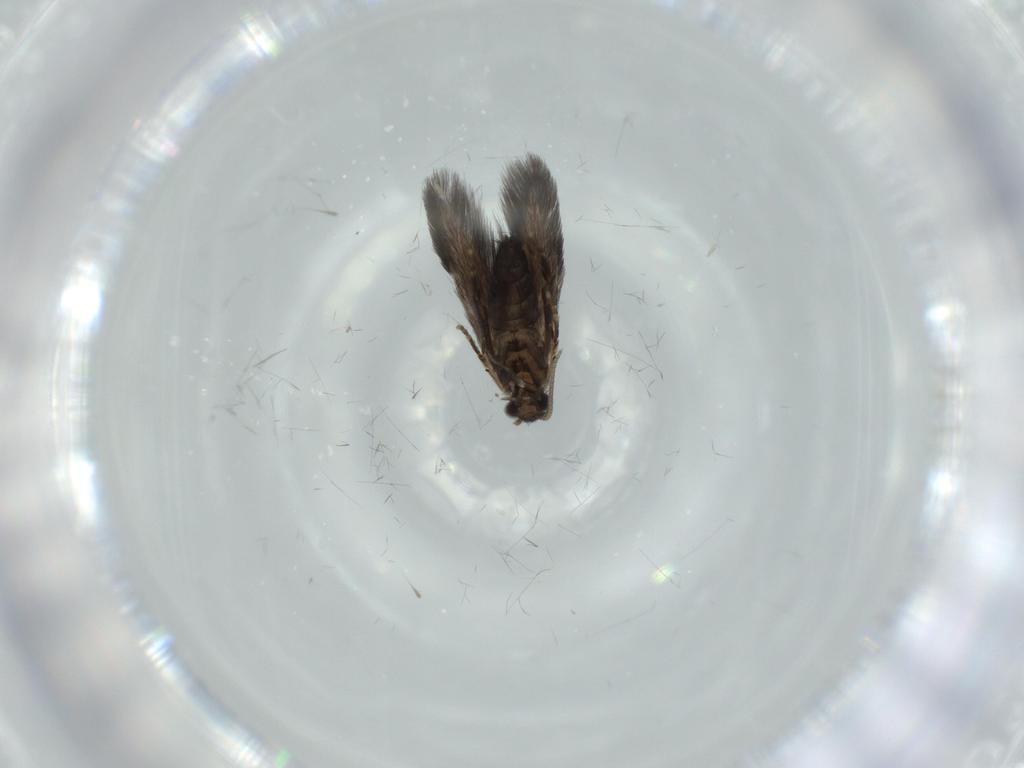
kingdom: Animalia
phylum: Arthropoda
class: Insecta
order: Trichoptera
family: Hydroptilidae
